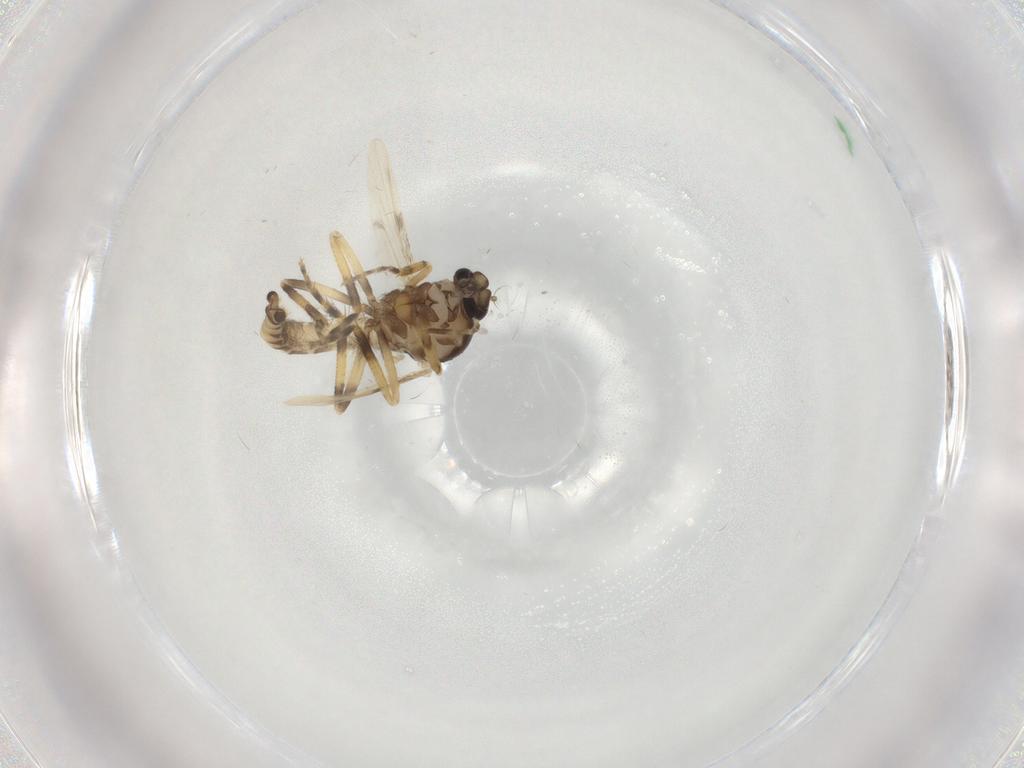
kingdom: Animalia
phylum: Arthropoda
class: Insecta
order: Diptera
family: Ceratopogonidae
